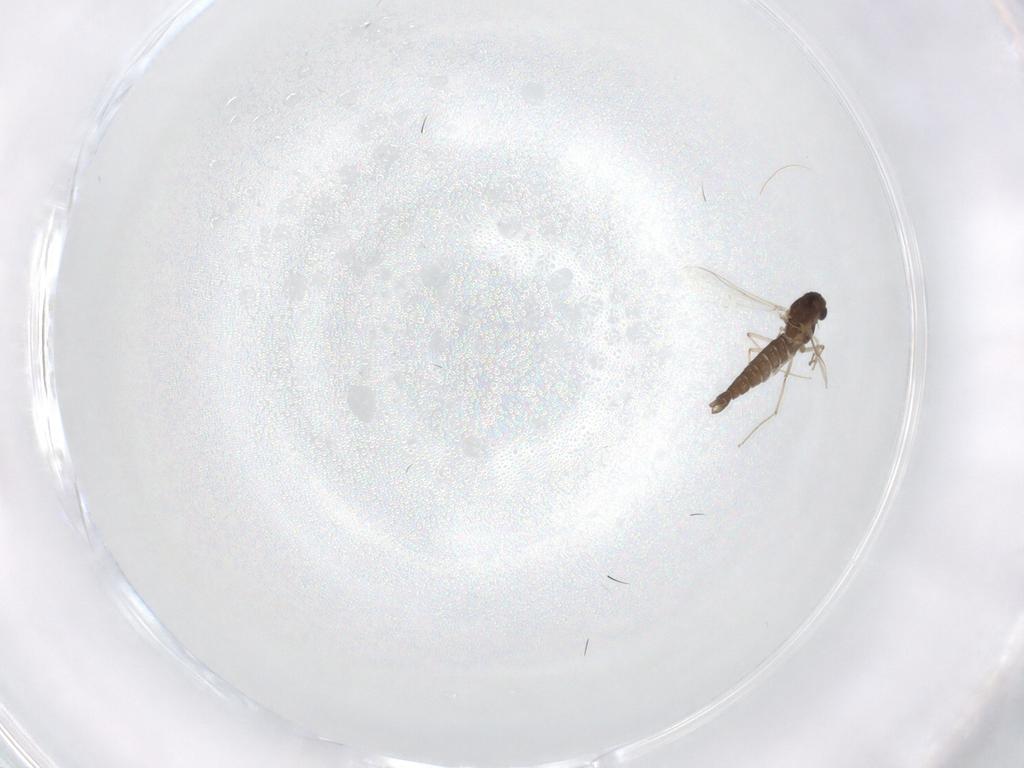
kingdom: Animalia
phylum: Arthropoda
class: Insecta
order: Diptera
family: Chironomidae
